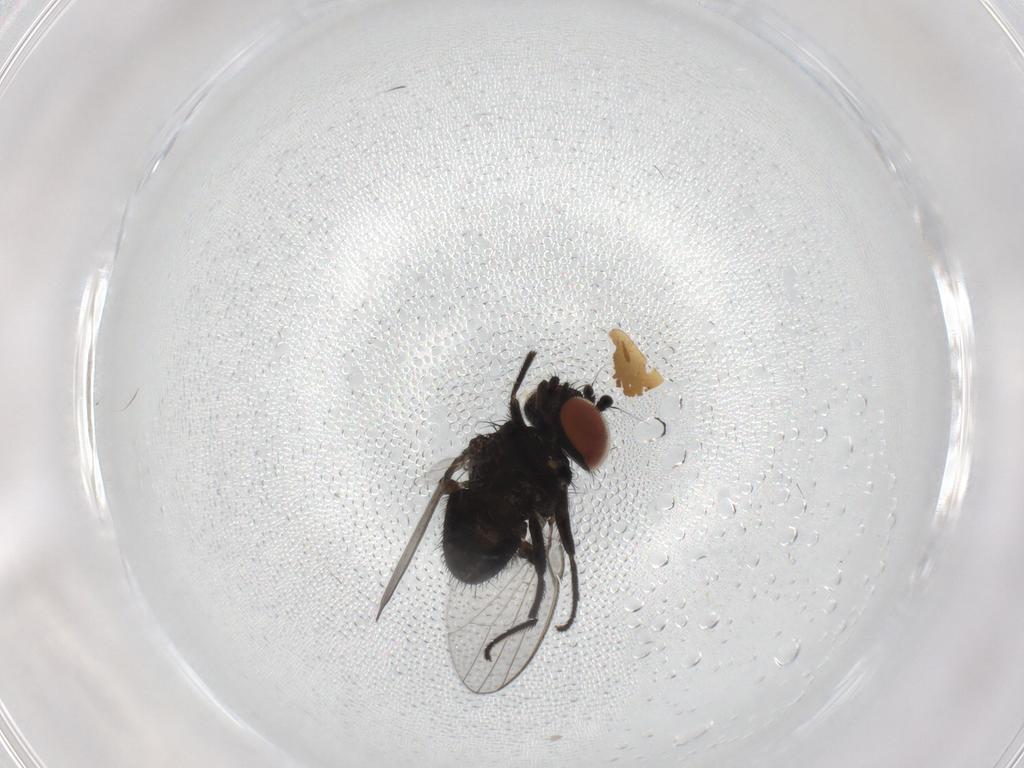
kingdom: Animalia
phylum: Arthropoda
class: Insecta
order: Diptera
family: Milichiidae
